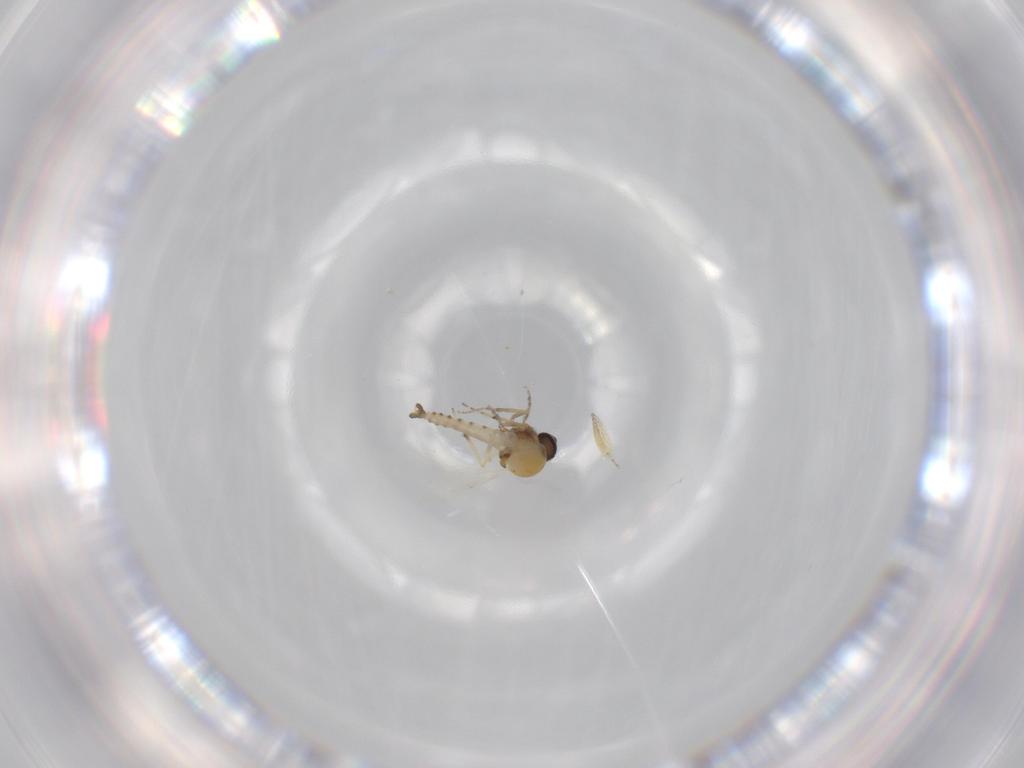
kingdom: Animalia
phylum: Arthropoda
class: Insecta
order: Diptera
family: Ceratopogonidae
